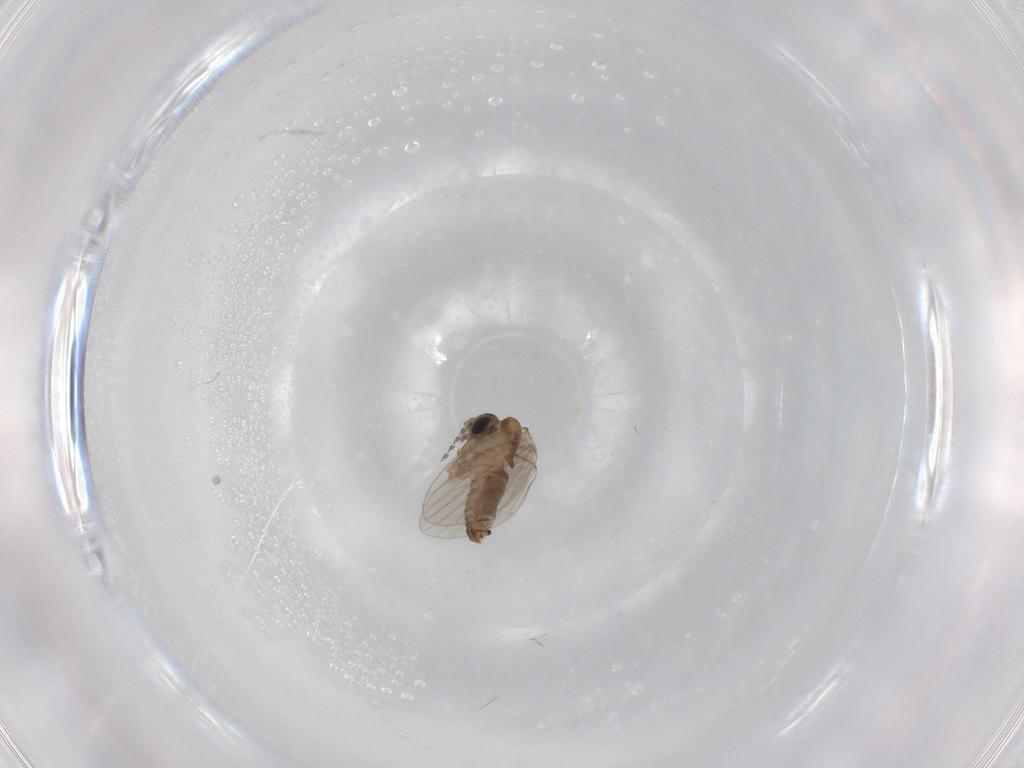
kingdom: Animalia
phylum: Arthropoda
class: Insecta
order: Diptera
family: Psychodidae
